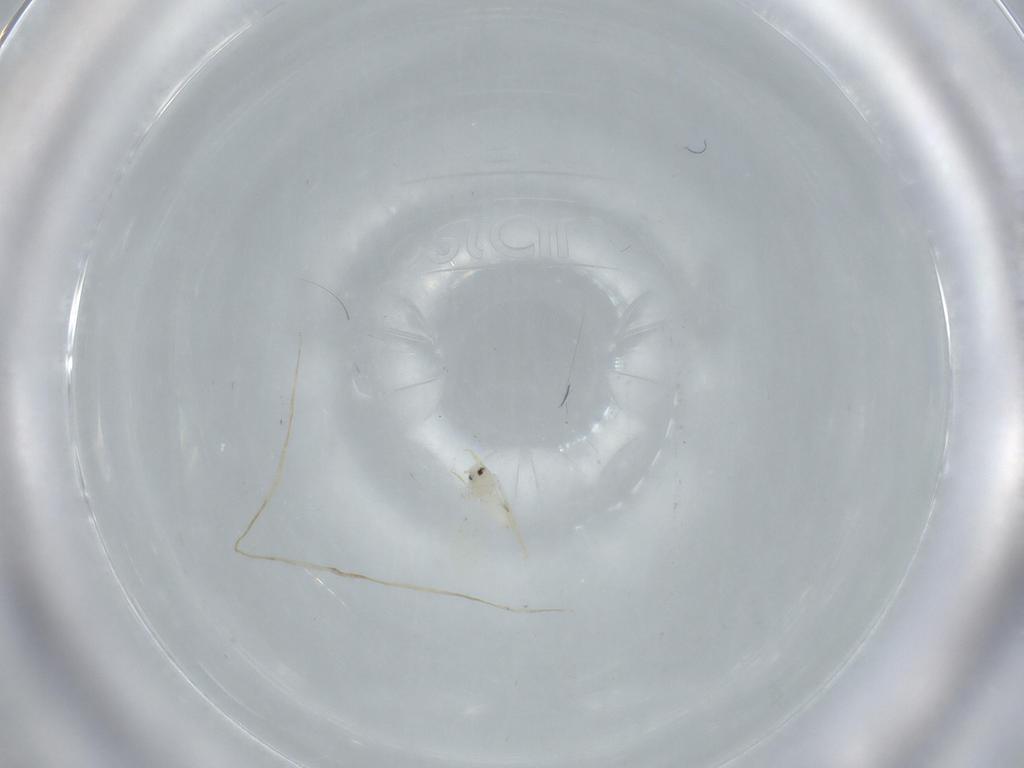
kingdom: Animalia
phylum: Arthropoda
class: Insecta
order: Hemiptera
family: Aleyrodidae
